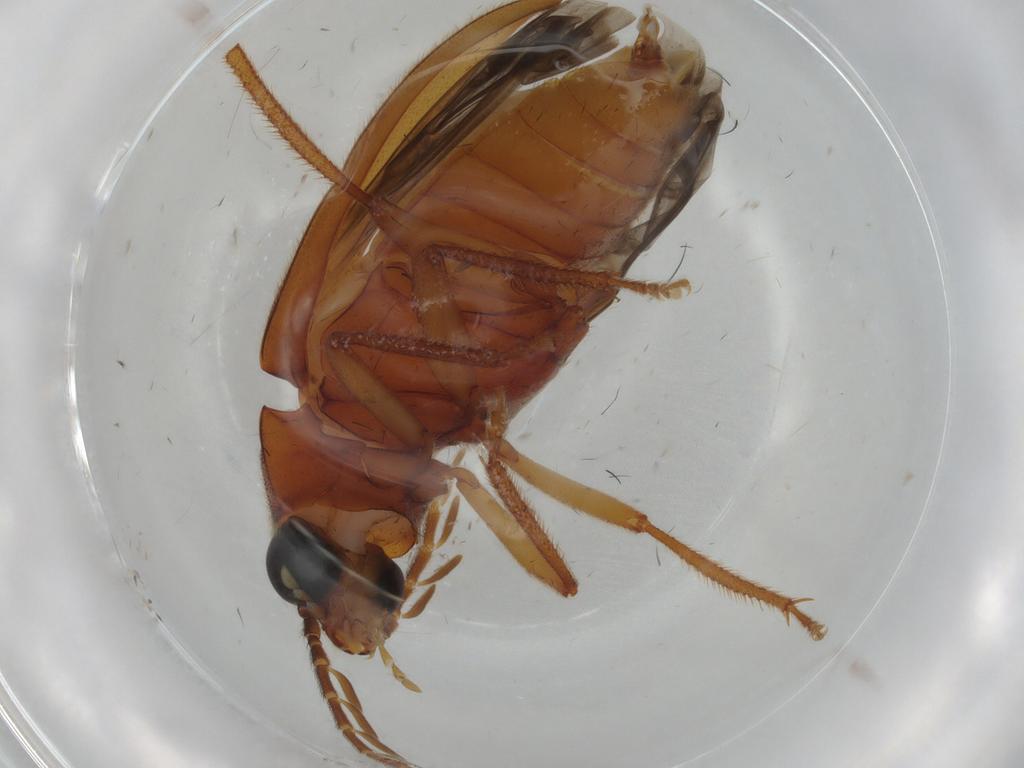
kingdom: Animalia
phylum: Arthropoda
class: Insecta
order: Coleoptera
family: Ptilodactylidae
